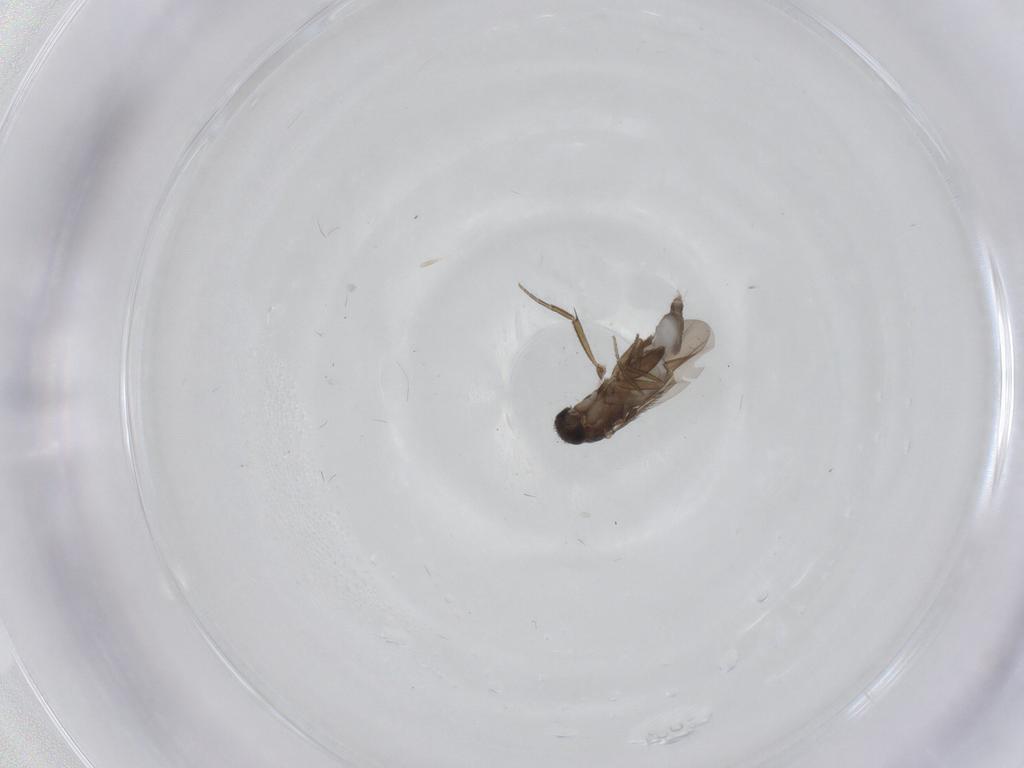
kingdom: Animalia
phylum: Arthropoda
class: Insecta
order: Diptera
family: Phoridae
